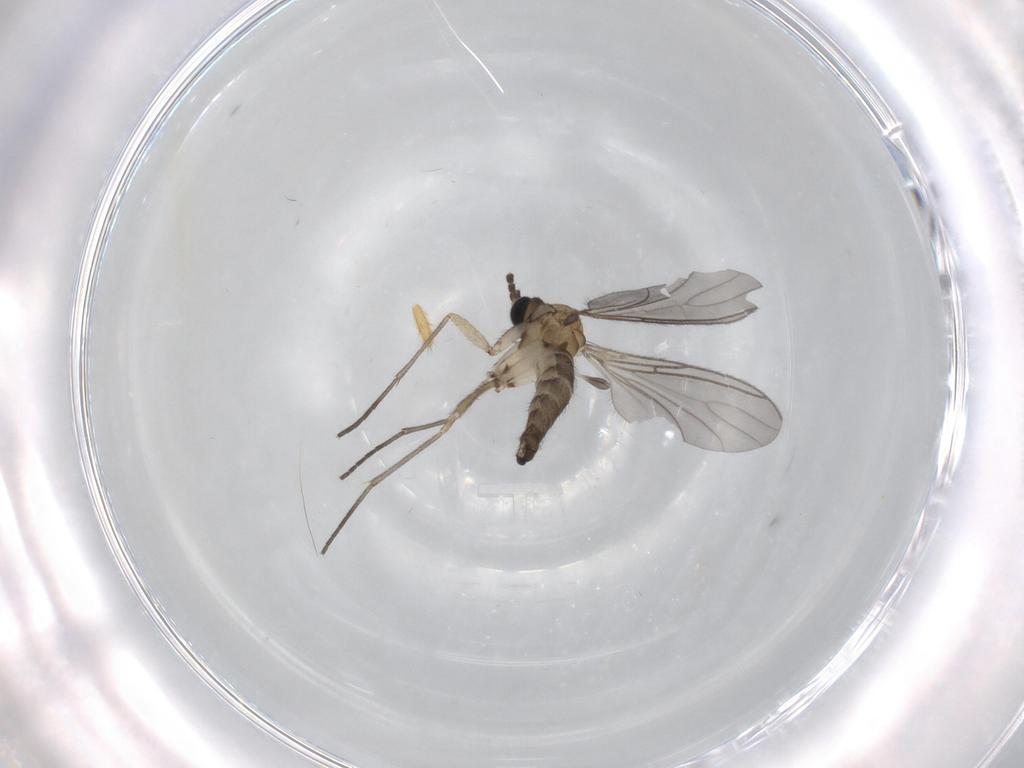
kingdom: Animalia
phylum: Arthropoda
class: Insecta
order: Diptera
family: Sciaridae
